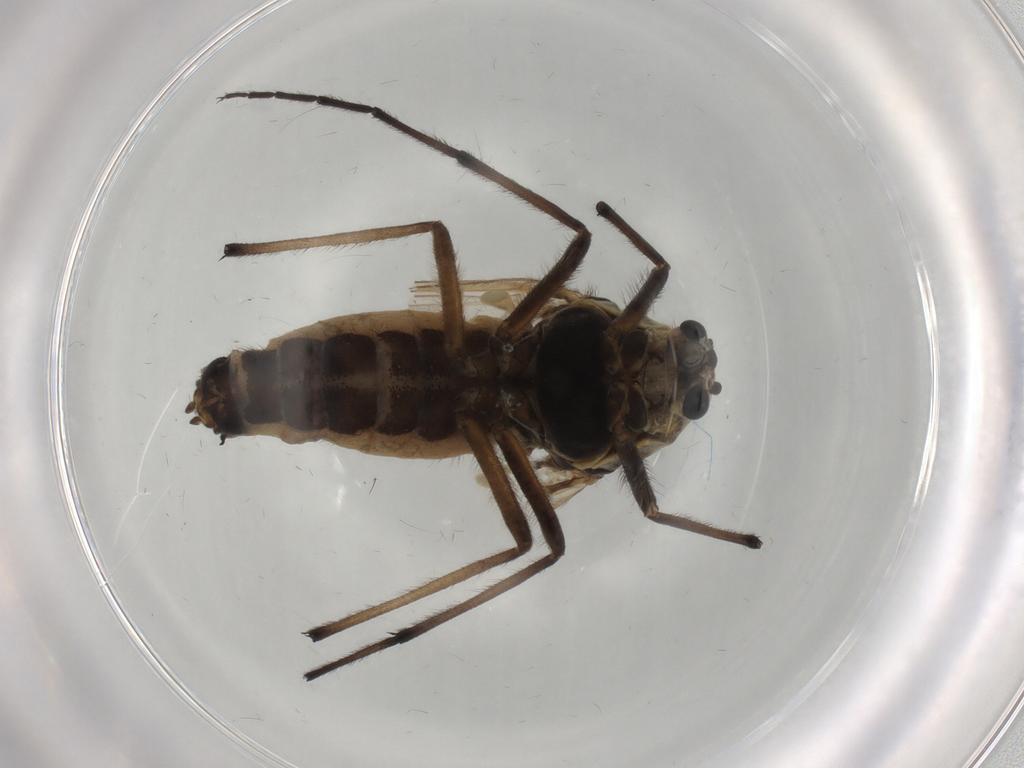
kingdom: Animalia
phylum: Arthropoda
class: Insecta
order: Diptera
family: Chironomidae
